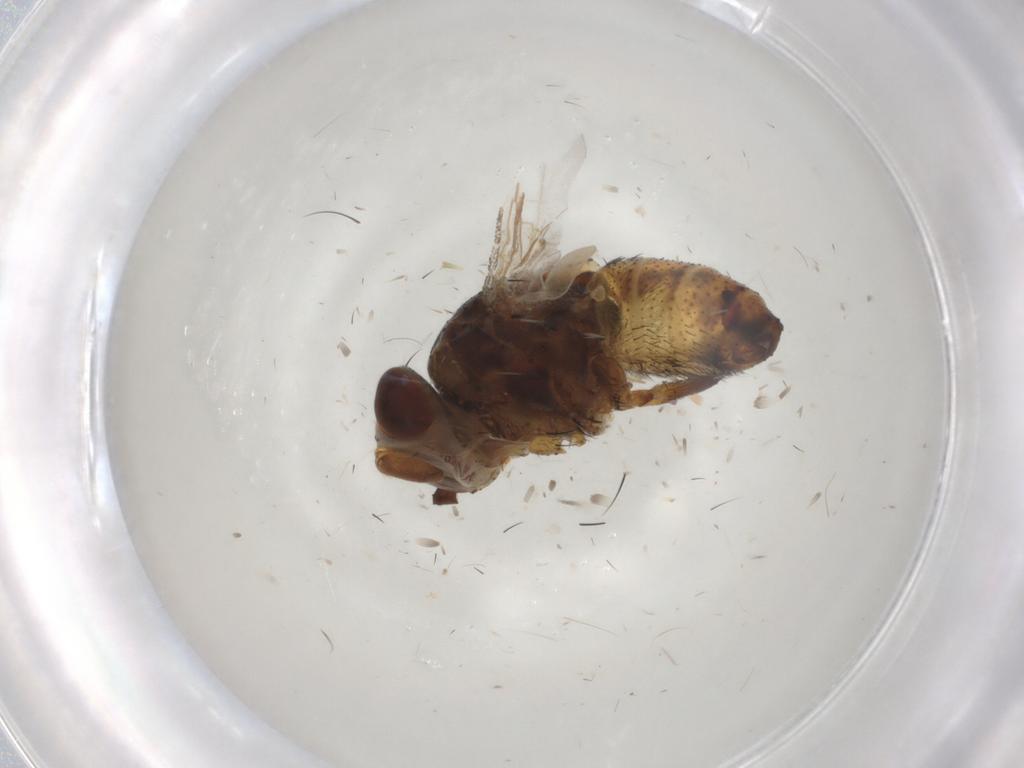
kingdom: Animalia
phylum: Arthropoda
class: Insecta
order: Diptera
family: Glossinidae
